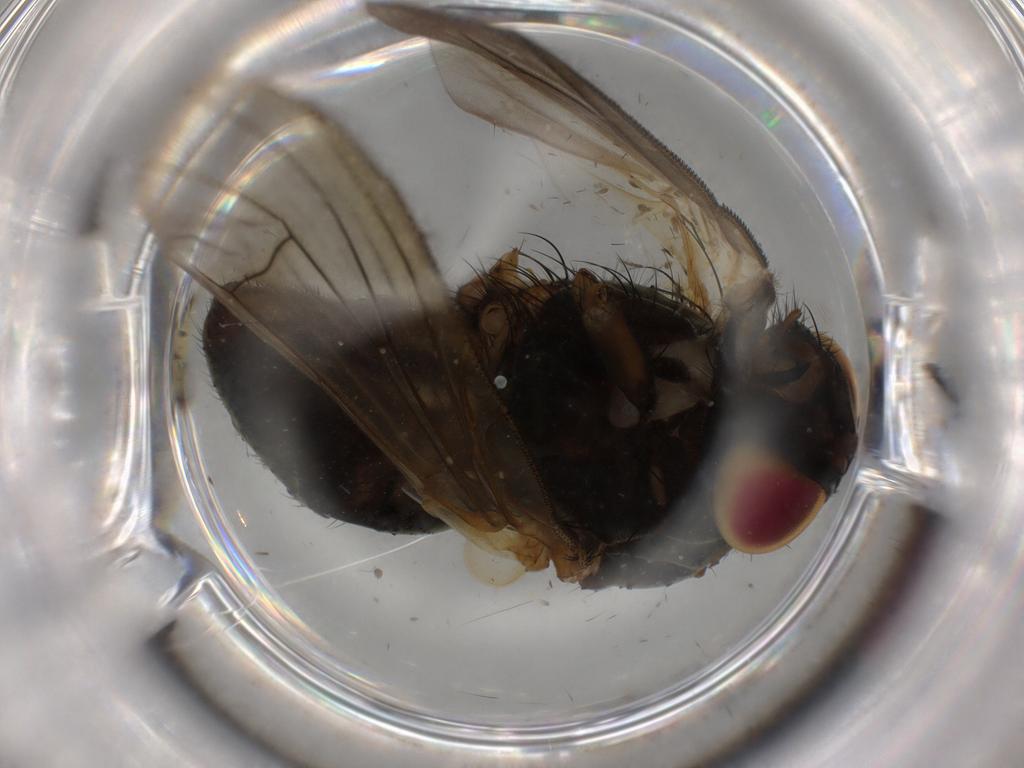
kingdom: Animalia
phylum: Arthropoda
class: Insecta
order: Diptera
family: Muscidae
